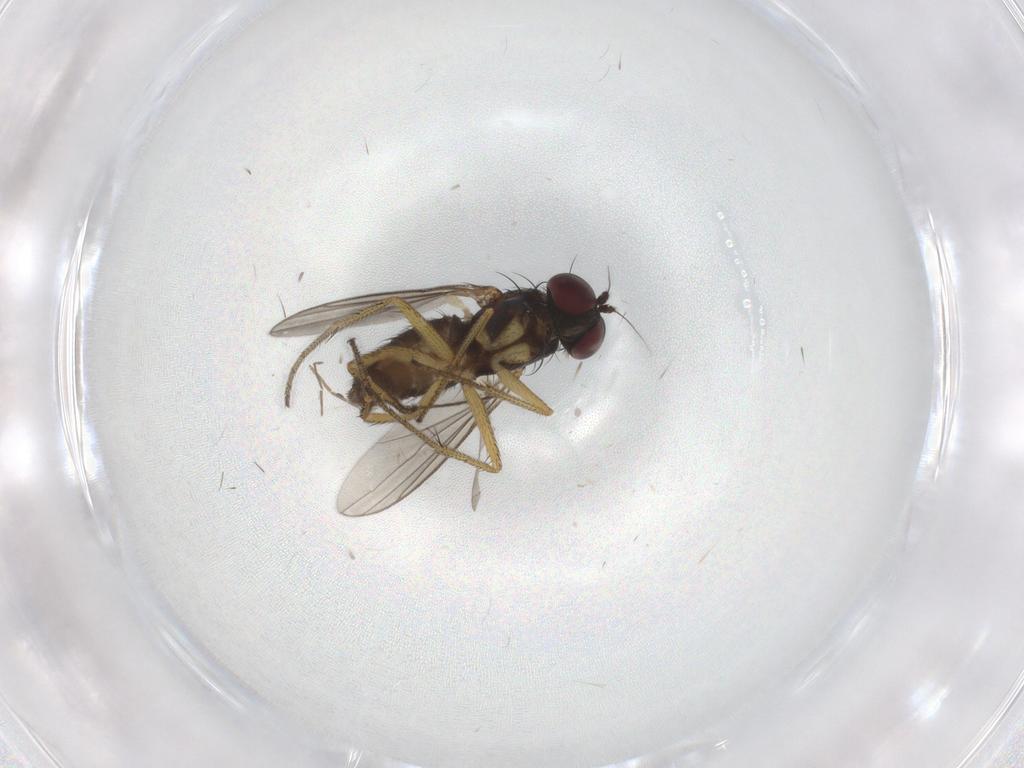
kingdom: Animalia
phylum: Arthropoda
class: Insecta
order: Diptera
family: Dolichopodidae
